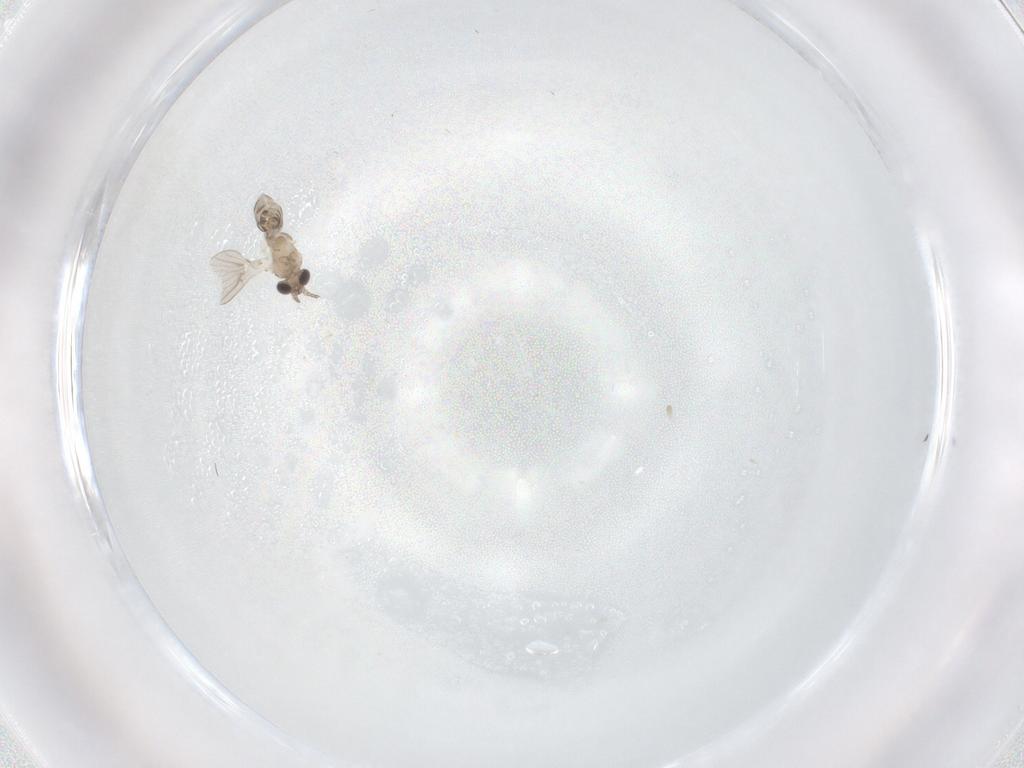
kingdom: Animalia
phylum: Arthropoda
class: Insecta
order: Diptera
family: Psychodidae
